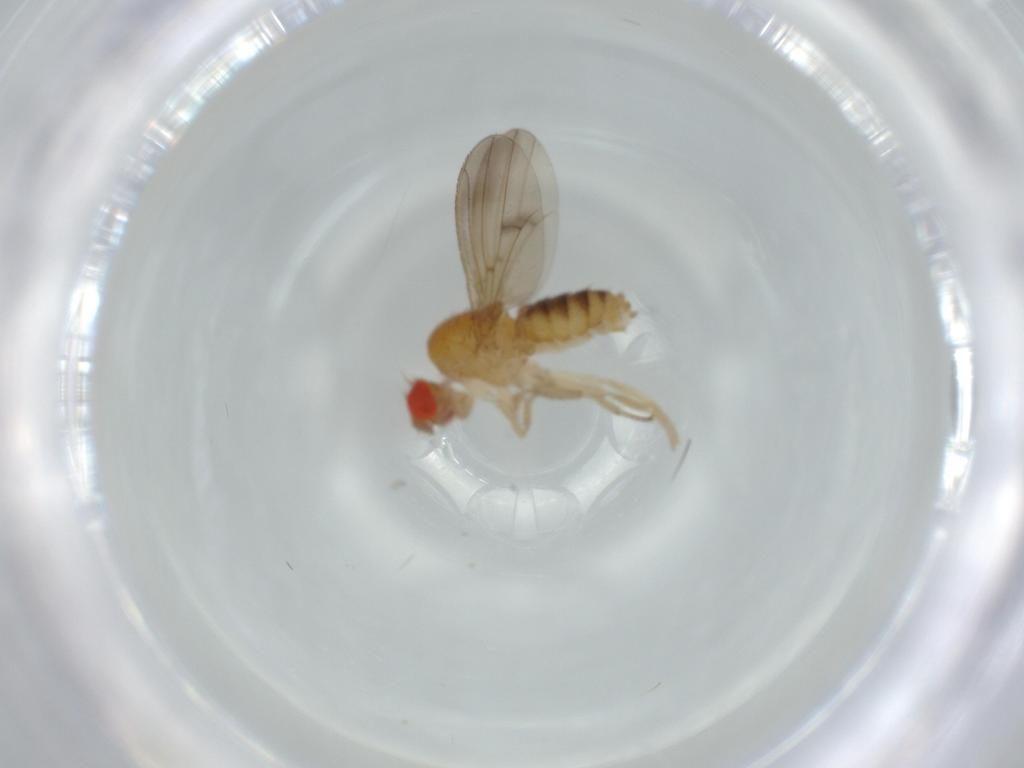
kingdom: Animalia
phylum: Arthropoda
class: Insecta
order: Diptera
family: Drosophilidae
